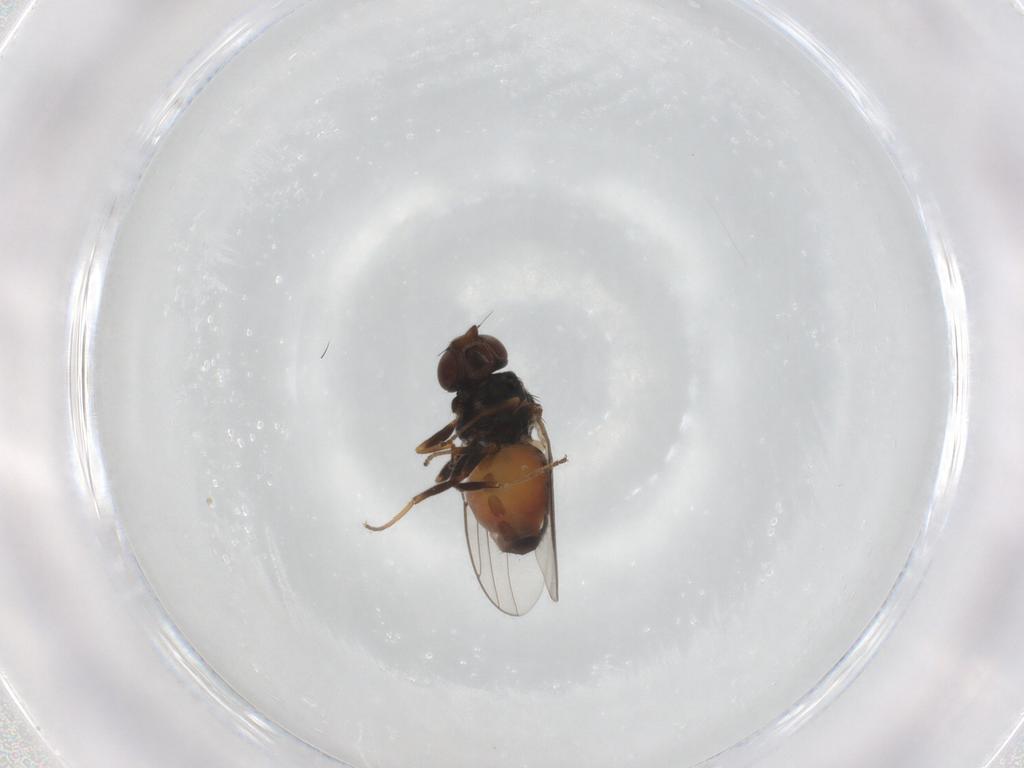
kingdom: Animalia
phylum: Arthropoda
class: Insecta
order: Diptera
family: Chloropidae
